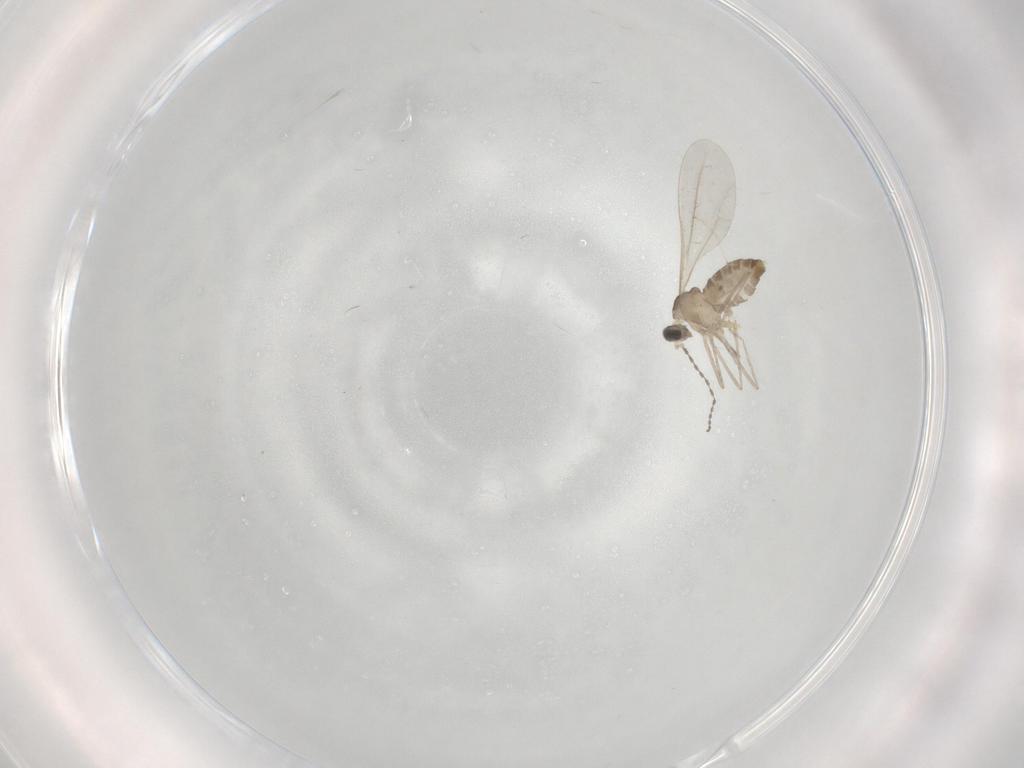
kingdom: Animalia
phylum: Arthropoda
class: Insecta
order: Diptera
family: Cecidomyiidae
